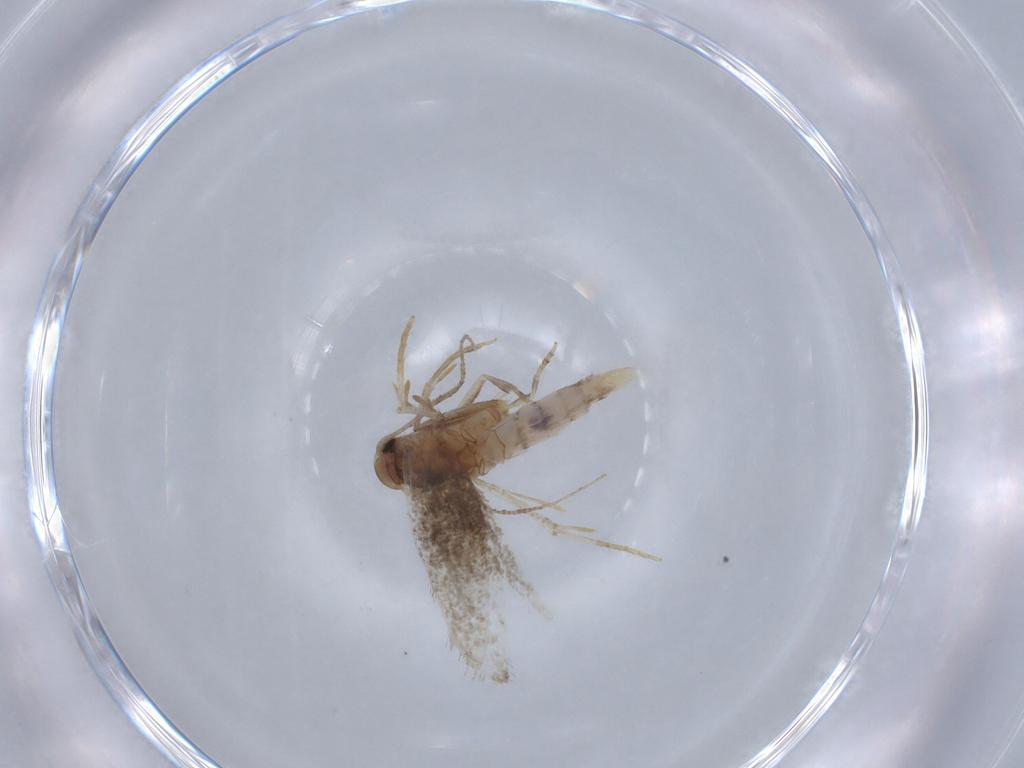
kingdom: Animalia
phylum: Arthropoda
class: Insecta
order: Lepidoptera
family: Elachistidae
